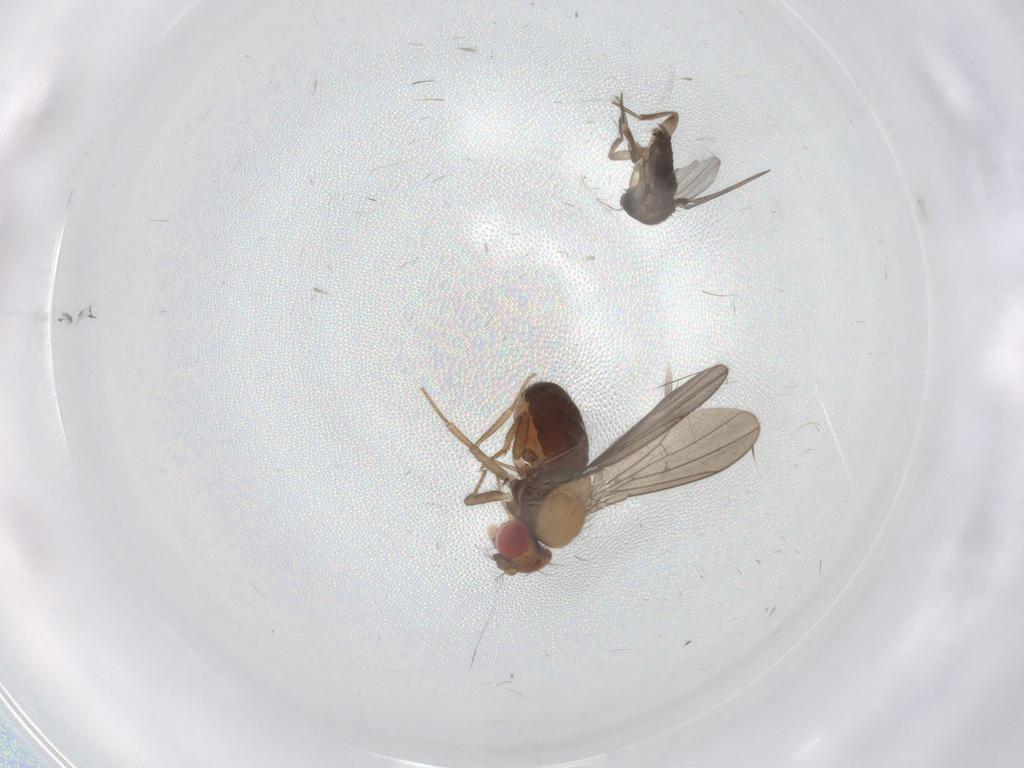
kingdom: Animalia
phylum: Arthropoda
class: Insecta
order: Diptera
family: Drosophilidae
